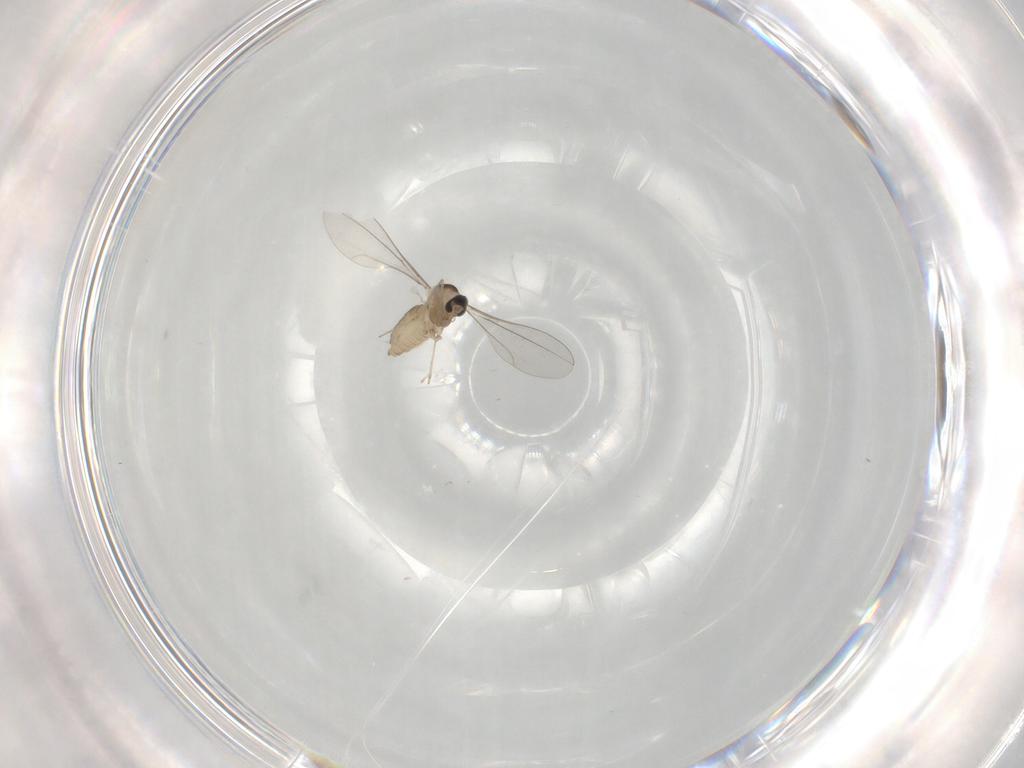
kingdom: Animalia
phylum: Arthropoda
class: Insecta
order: Diptera
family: Cecidomyiidae
